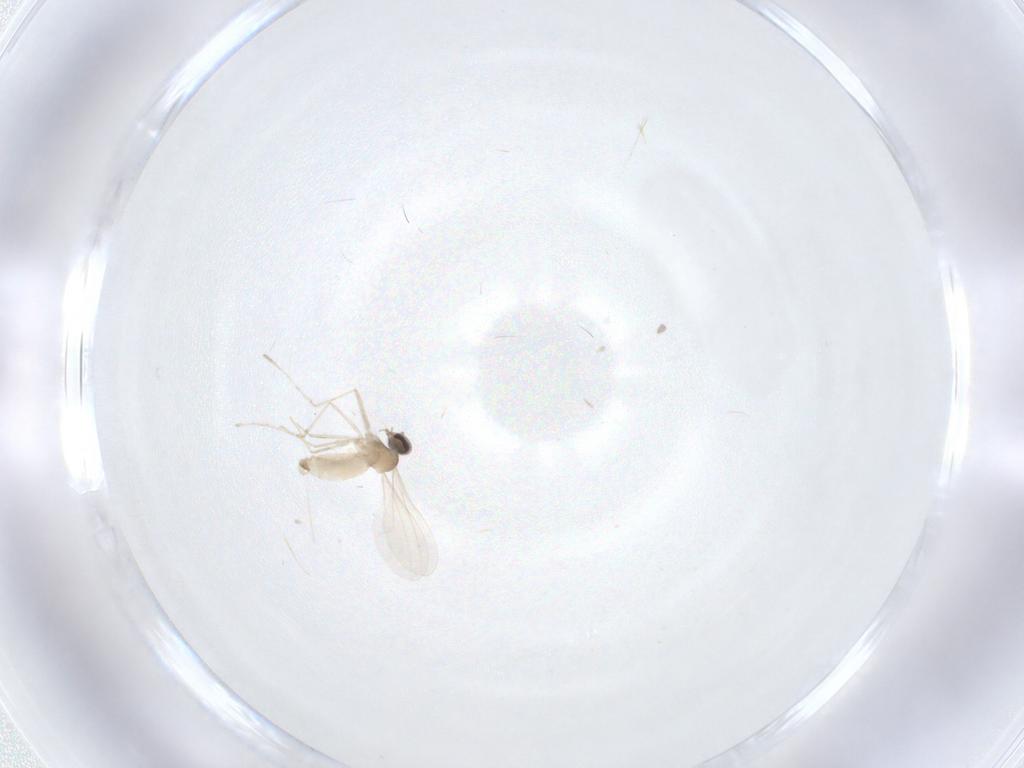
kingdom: Animalia
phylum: Arthropoda
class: Insecta
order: Diptera
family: Cecidomyiidae
